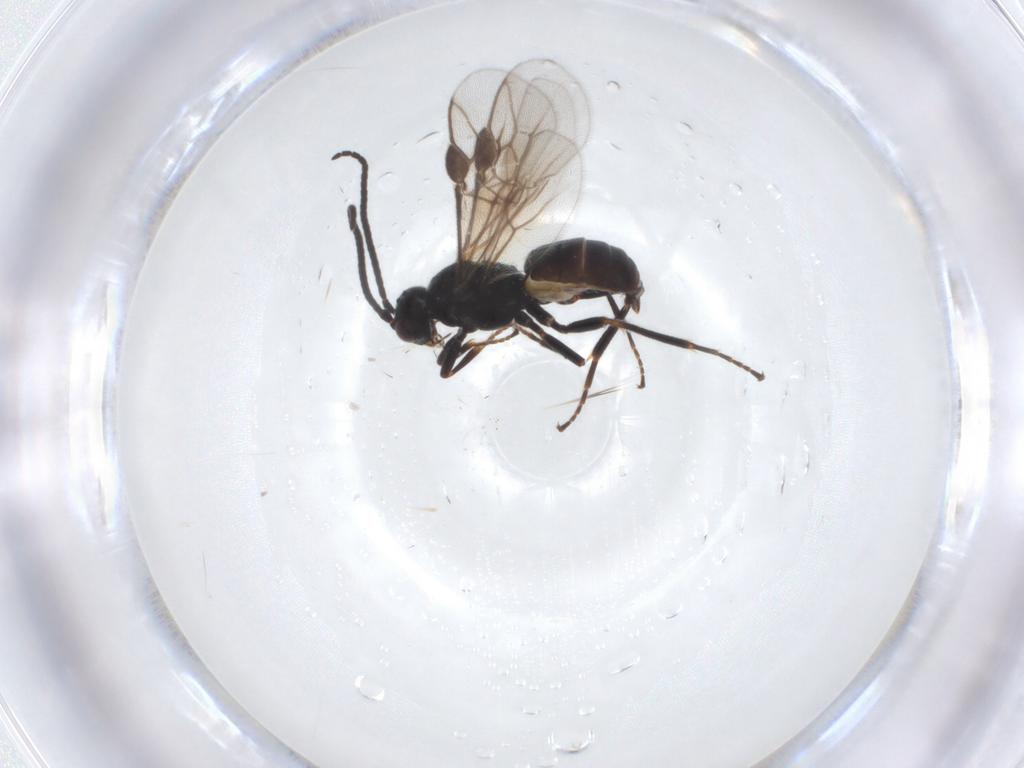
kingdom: Animalia
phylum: Arthropoda
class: Insecta
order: Hymenoptera
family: Braconidae
